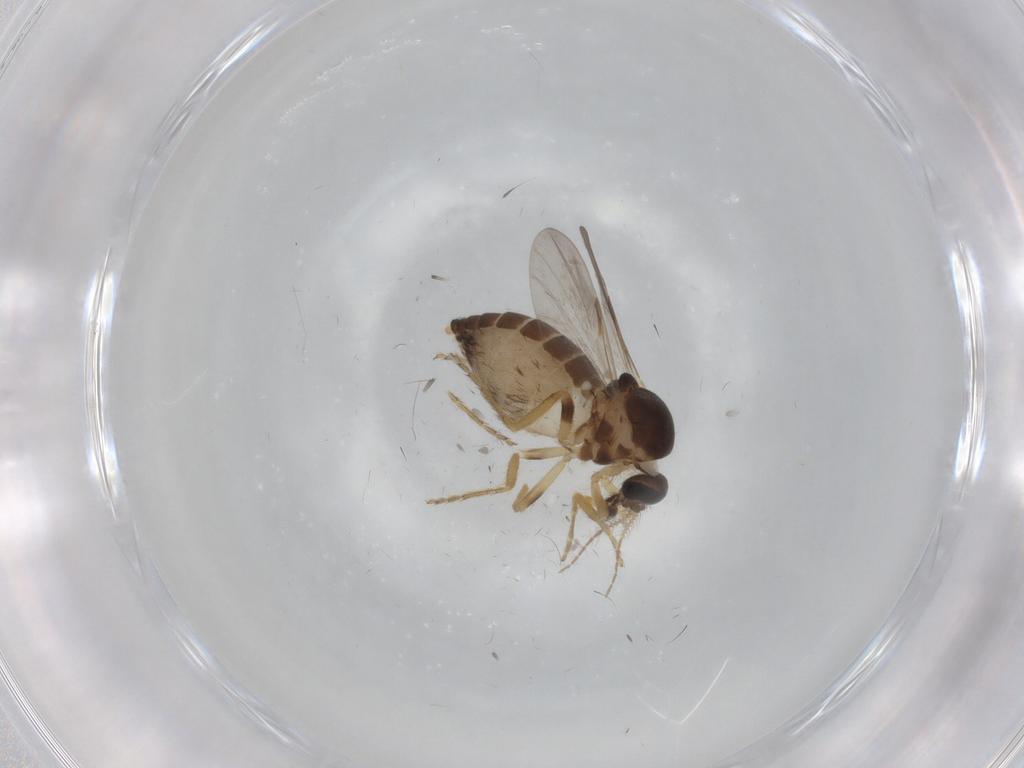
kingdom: Animalia
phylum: Arthropoda
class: Insecta
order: Diptera
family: Ceratopogonidae
